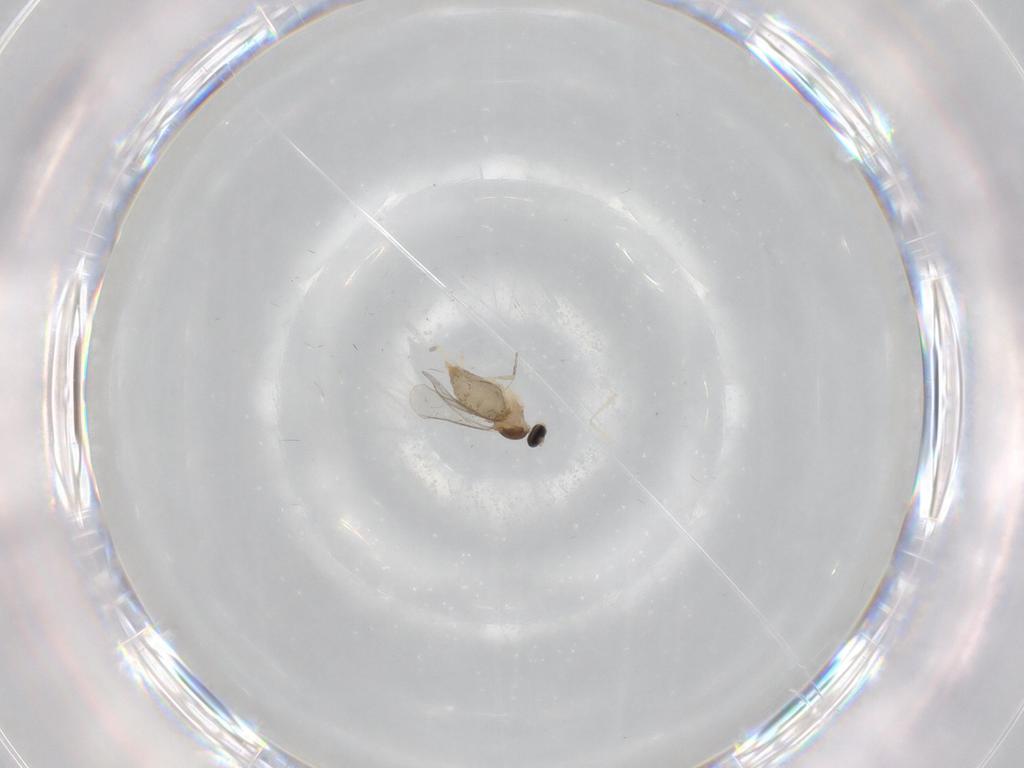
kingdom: Animalia
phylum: Arthropoda
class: Insecta
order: Diptera
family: Cecidomyiidae
